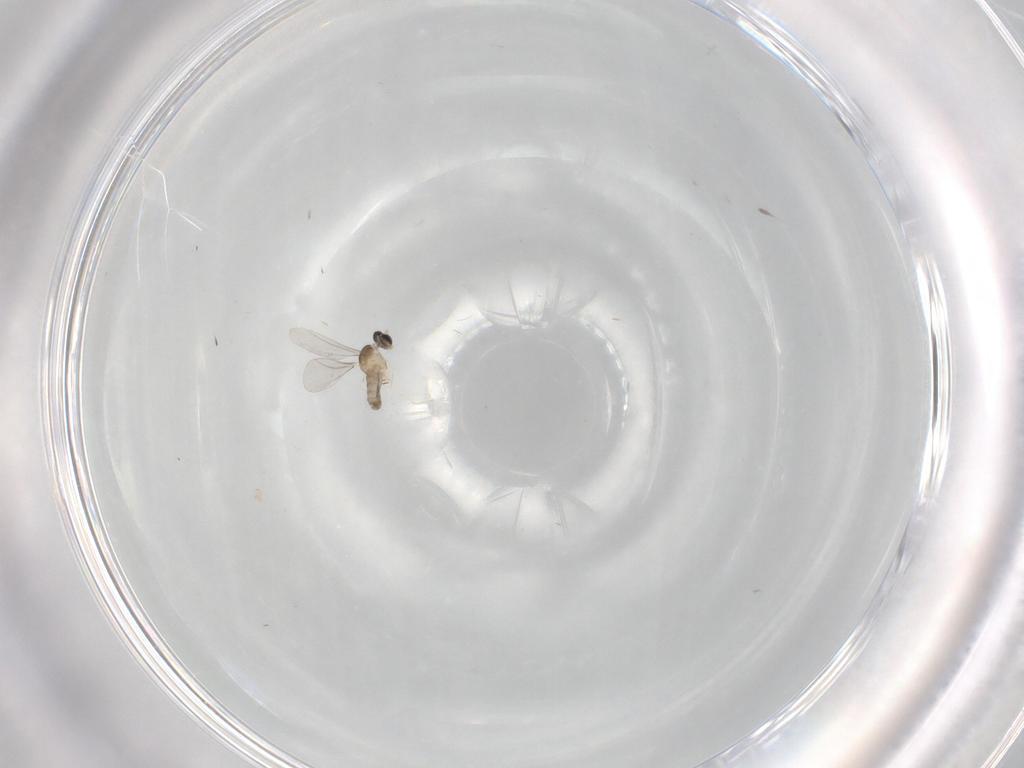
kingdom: Animalia
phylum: Arthropoda
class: Insecta
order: Diptera
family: Cecidomyiidae
